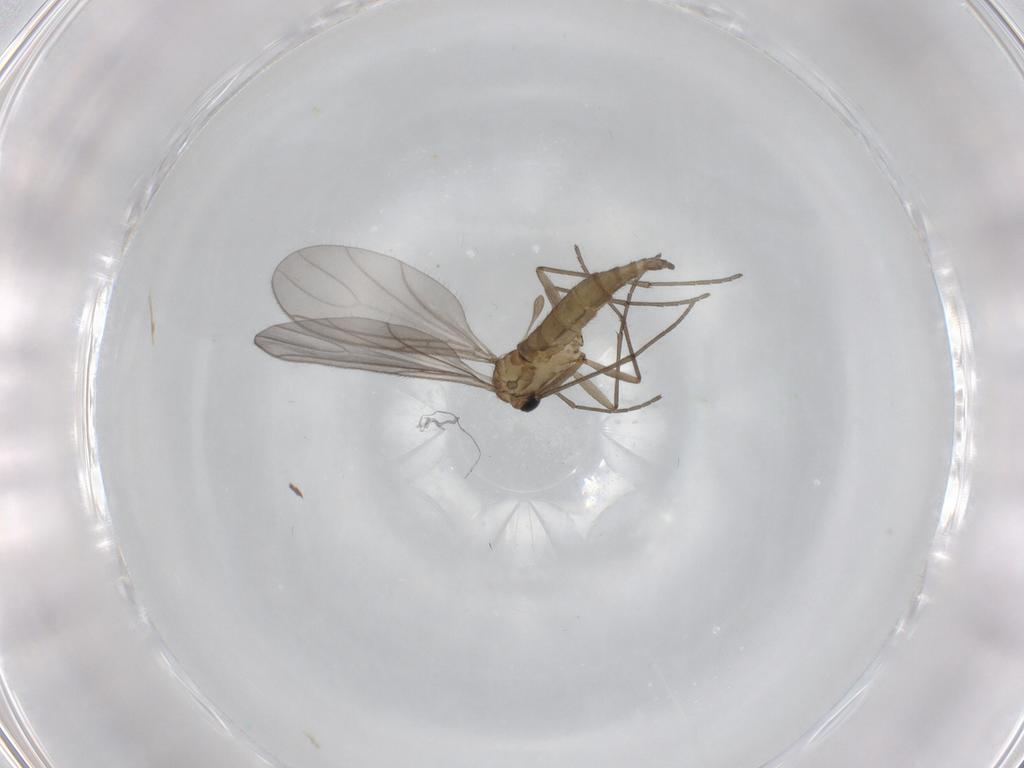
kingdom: Animalia
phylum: Arthropoda
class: Insecta
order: Diptera
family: Sciaridae
